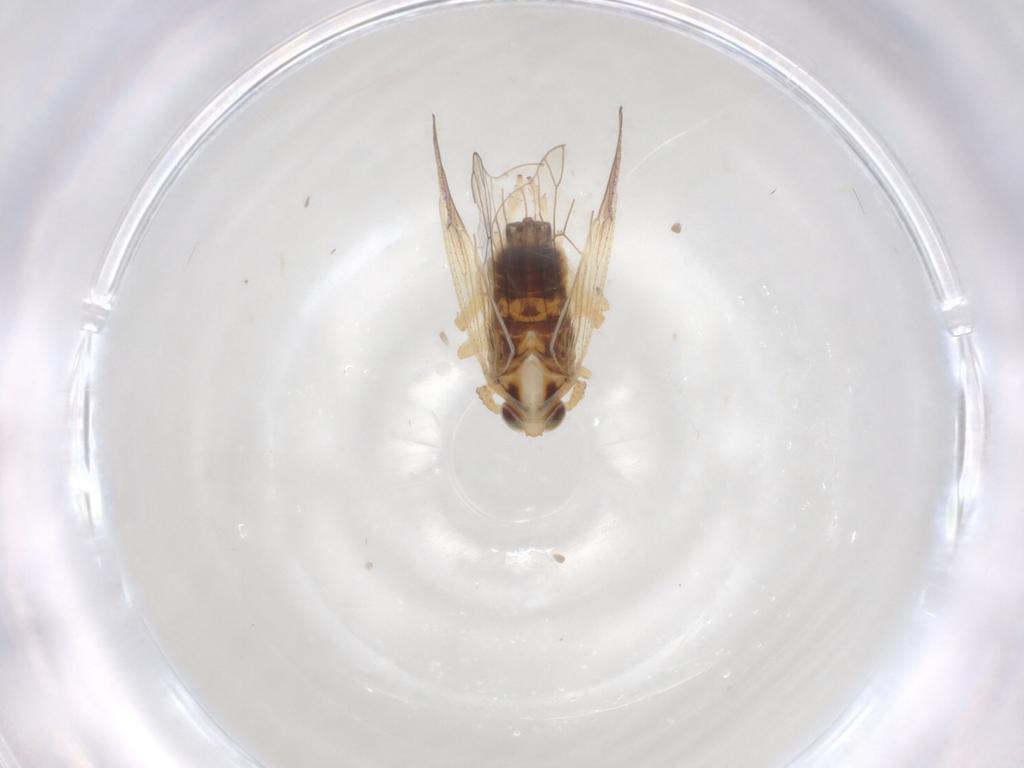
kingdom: Animalia
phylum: Arthropoda
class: Insecta
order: Hemiptera
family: Delphacidae
